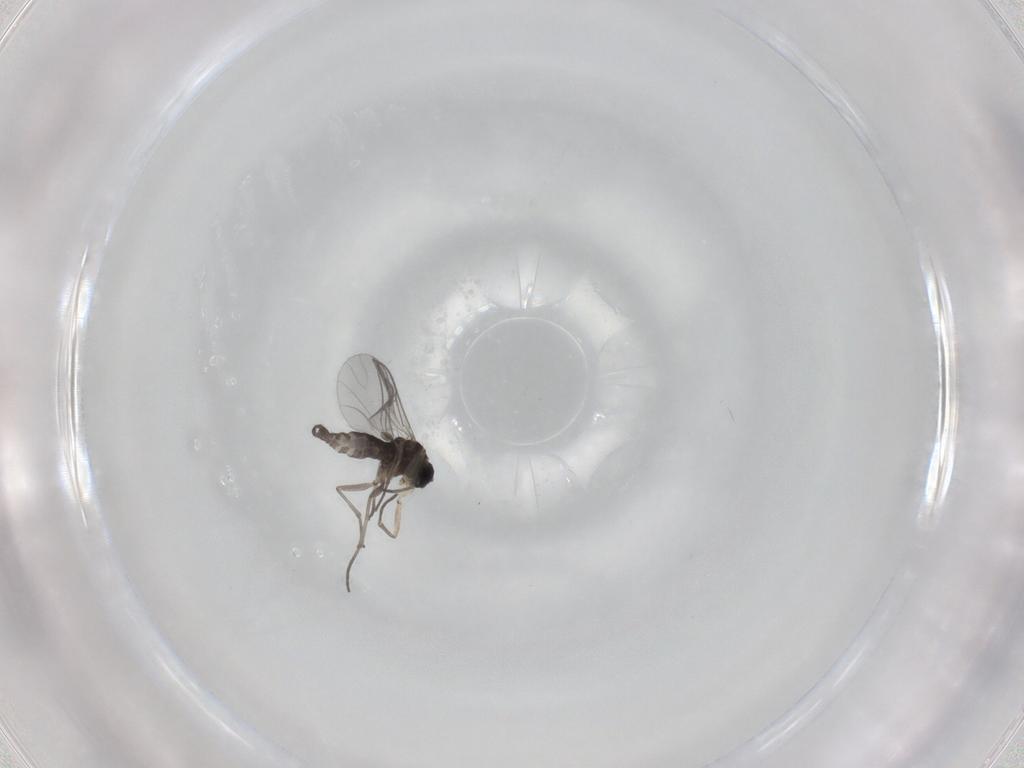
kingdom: Animalia
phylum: Arthropoda
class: Insecta
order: Diptera
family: Sciaridae
